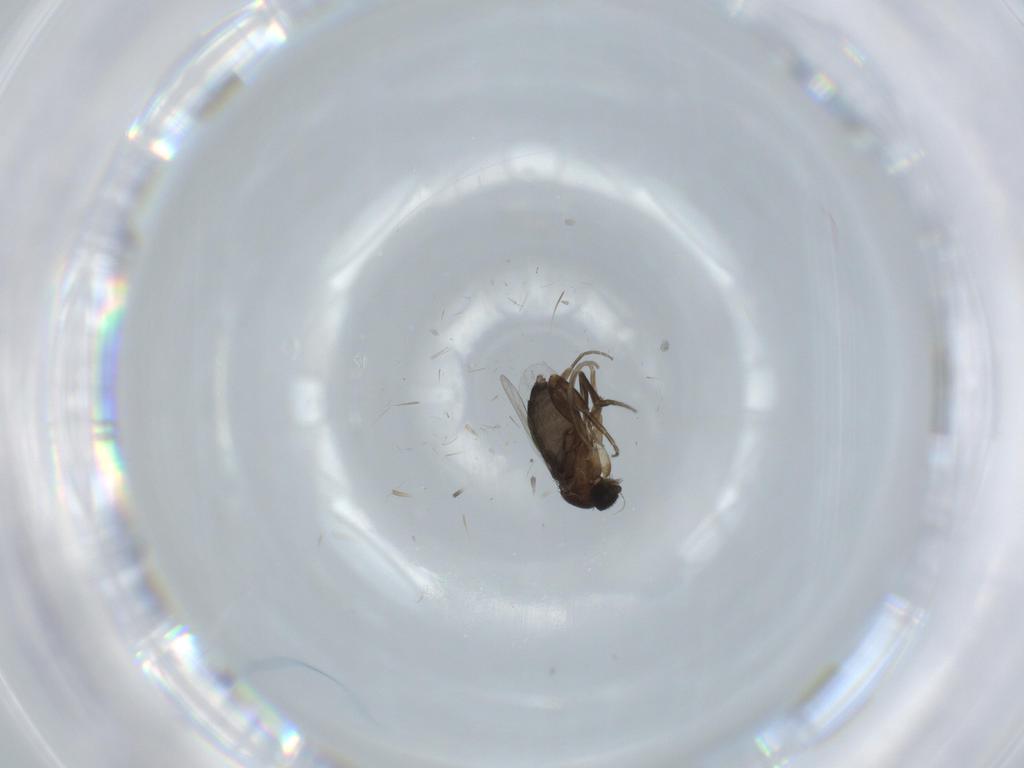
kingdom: Animalia
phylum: Arthropoda
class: Insecta
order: Diptera
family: Phoridae
